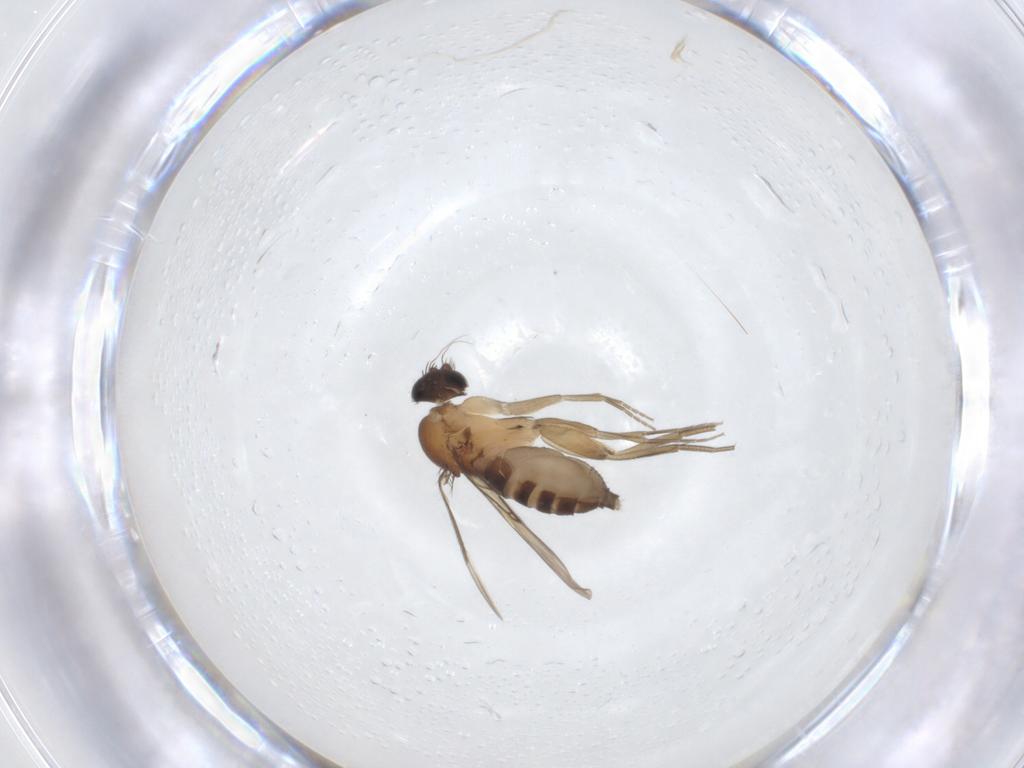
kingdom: Animalia
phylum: Arthropoda
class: Insecta
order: Diptera
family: Phoridae
